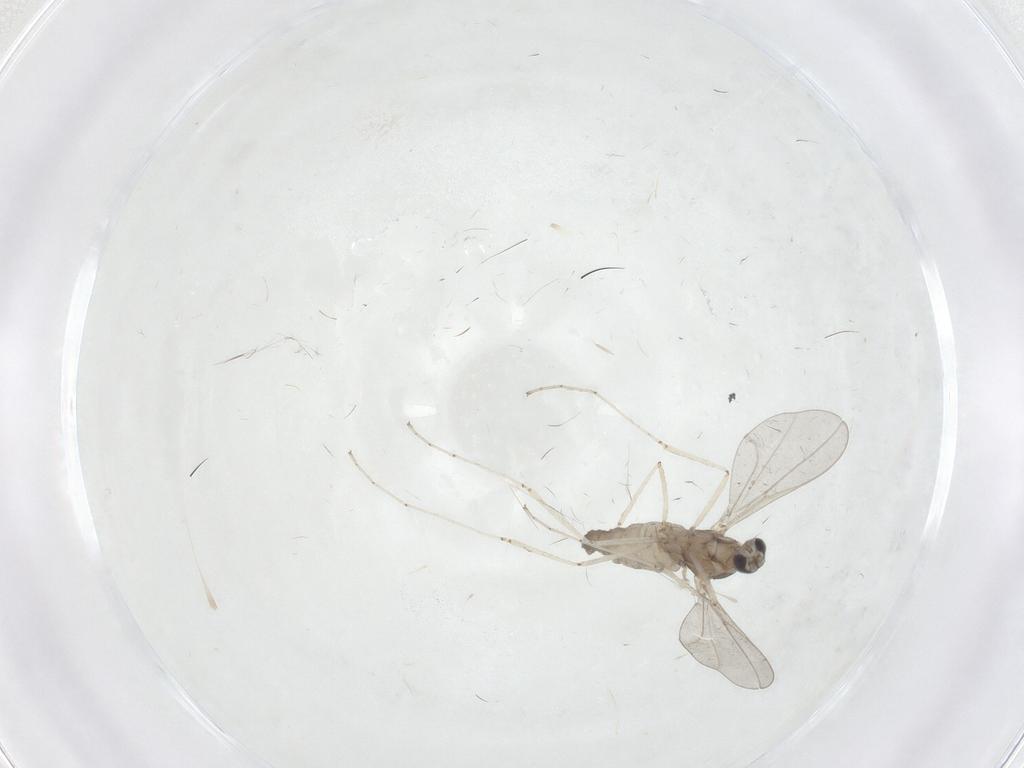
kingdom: Animalia
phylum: Arthropoda
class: Insecta
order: Diptera
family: Cecidomyiidae
